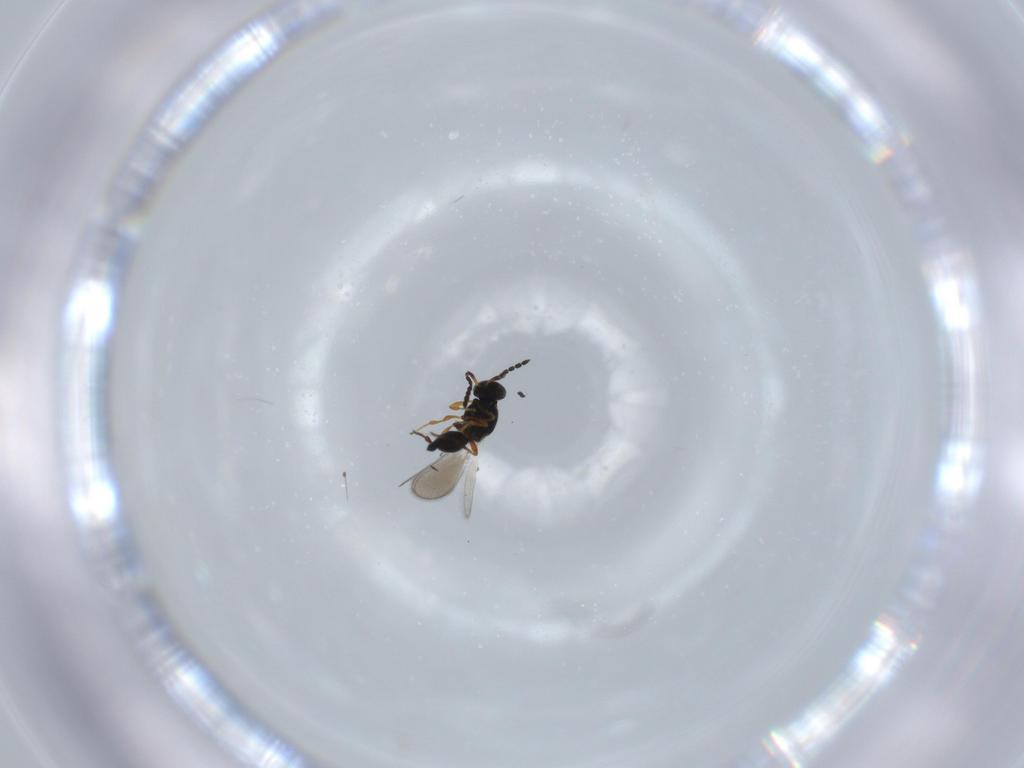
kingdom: Animalia
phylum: Arthropoda
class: Insecta
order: Hymenoptera
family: Platygastridae
